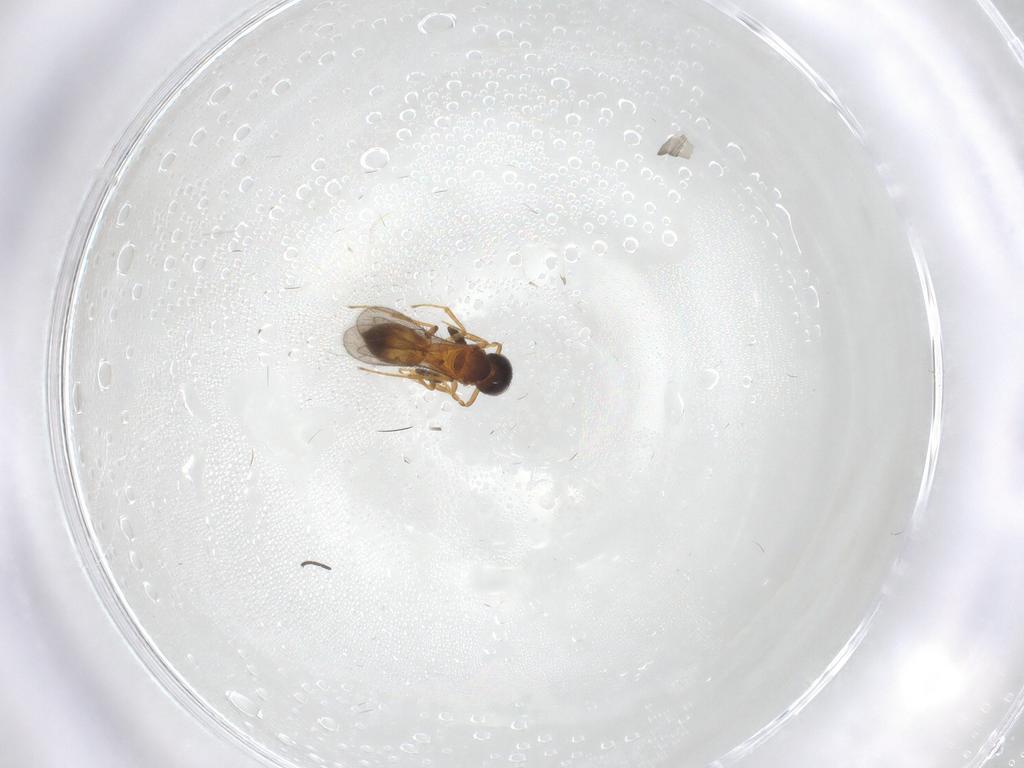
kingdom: Animalia
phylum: Arthropoda
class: Insecta
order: Hymenoptera
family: Scelionidae
